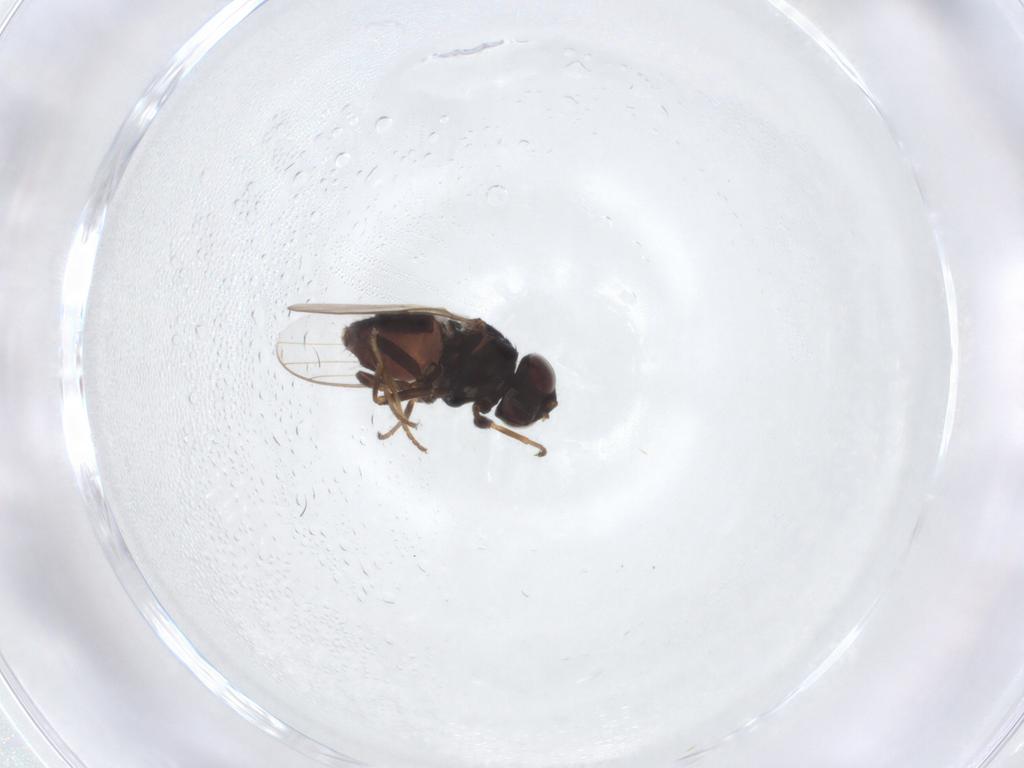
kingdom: Animalia
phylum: Arthropoda
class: Insecta
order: Diptera
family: Chloropidae
